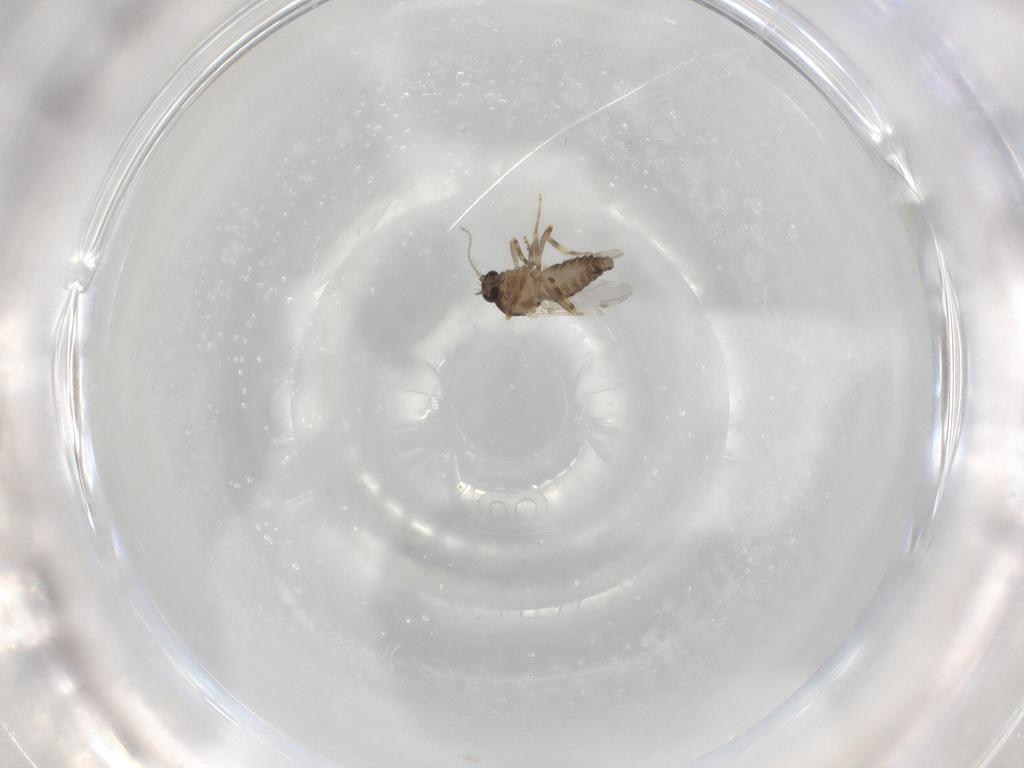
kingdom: Animalia
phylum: Arthropoda
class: Insecta
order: Diptera
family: Ceratopogonidae
